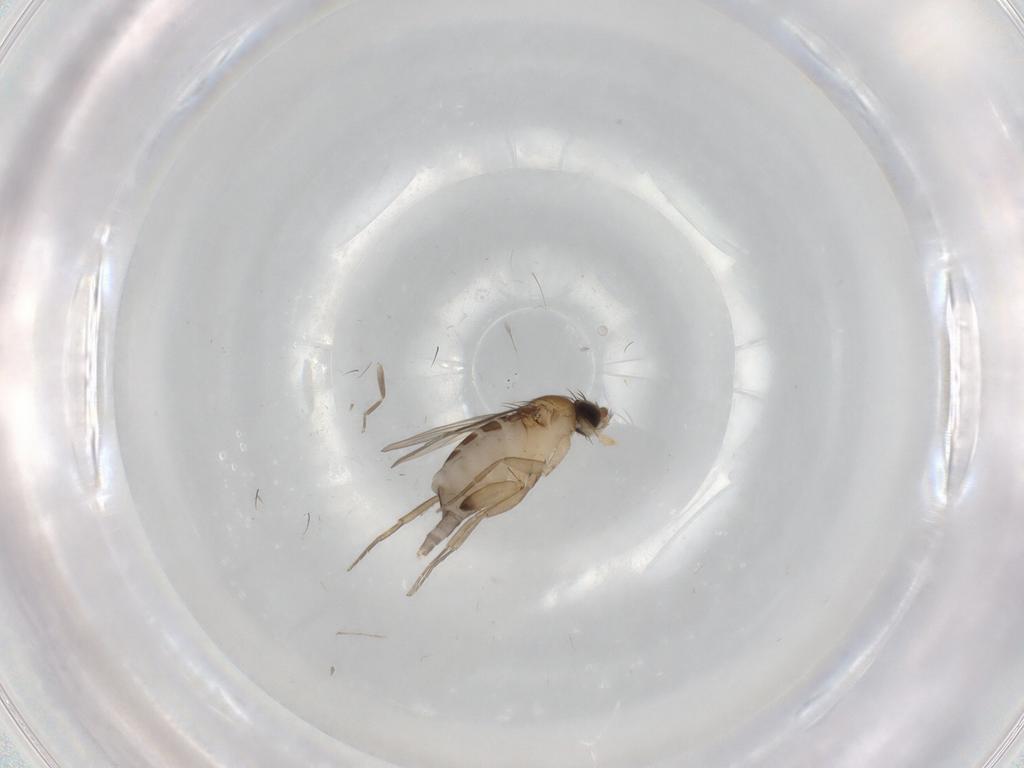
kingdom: Animalia
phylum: Arthropoda
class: Insecta
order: Diptera
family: Phoridae
